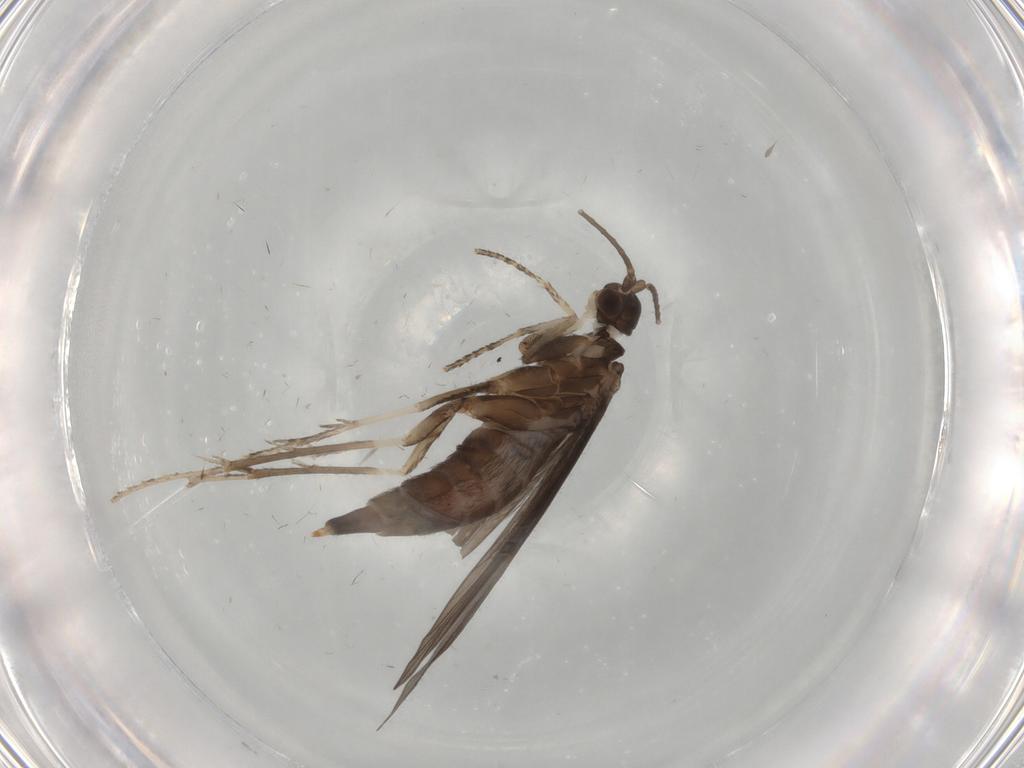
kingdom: Animalia
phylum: Arthropoda
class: Insecta
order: Trichoptera
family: Xiphocentronidae
